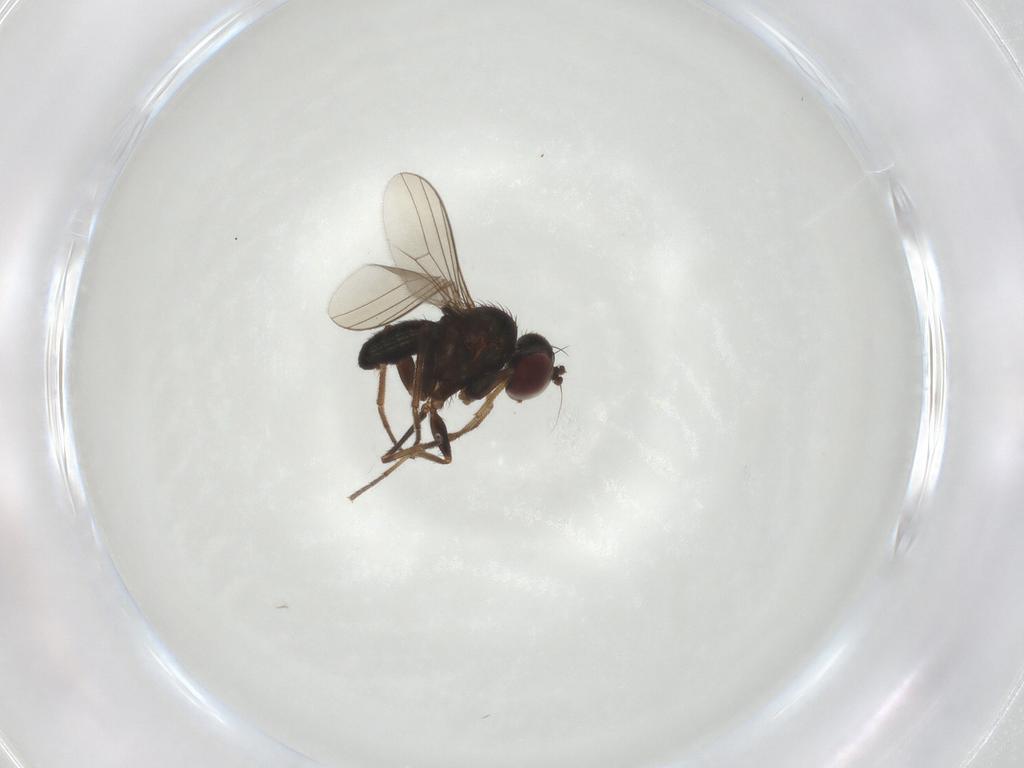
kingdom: Animalia
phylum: Arthropoda
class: Insecta
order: Diptera
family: Dolichopodidae
